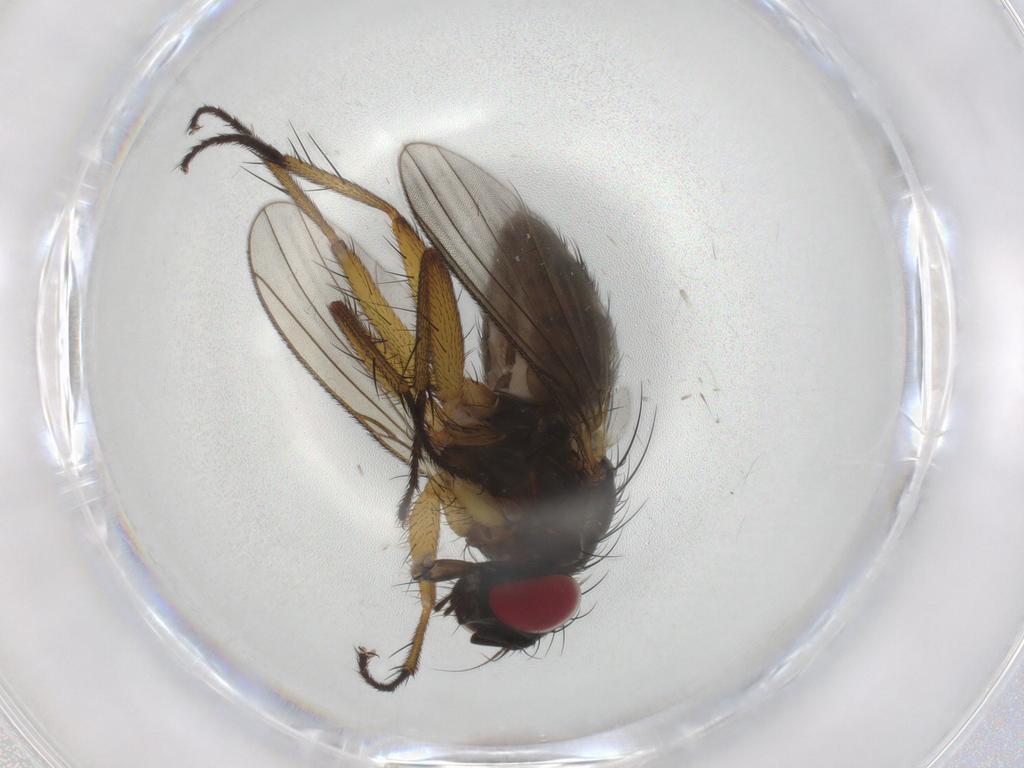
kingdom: Animalia
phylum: Arthropoda
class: Insecta
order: Diptera
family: Muscidae
